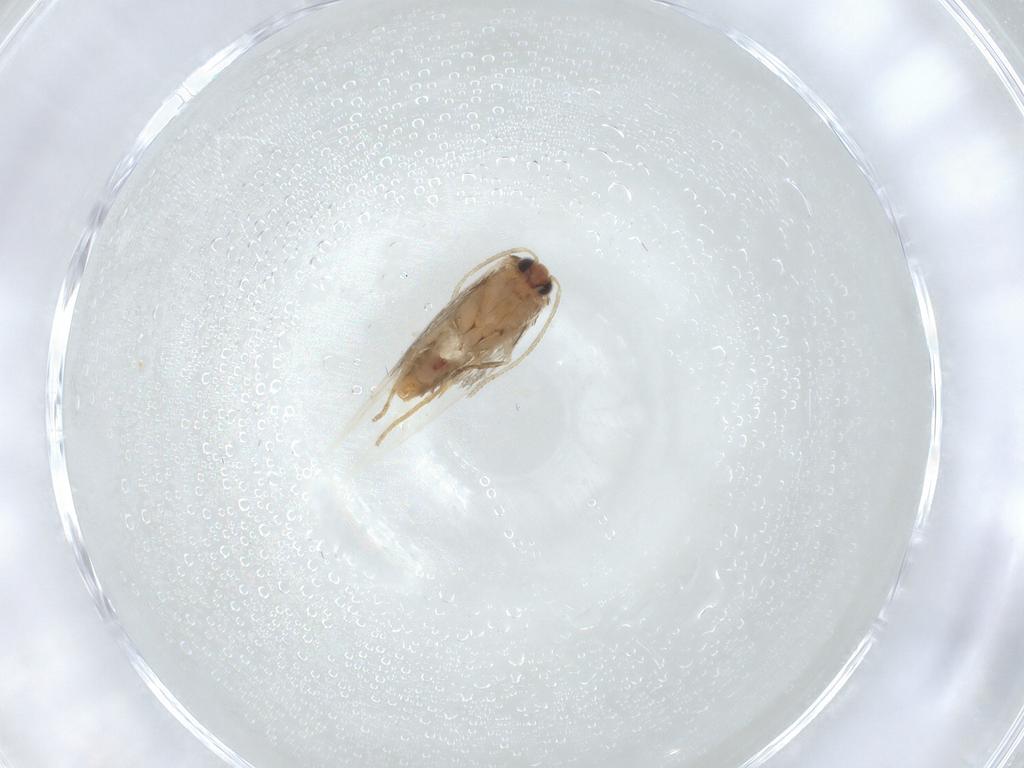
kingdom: Animalia
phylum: Arthropoda
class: Insecta
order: Lepidoptera
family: Nepticulidae
